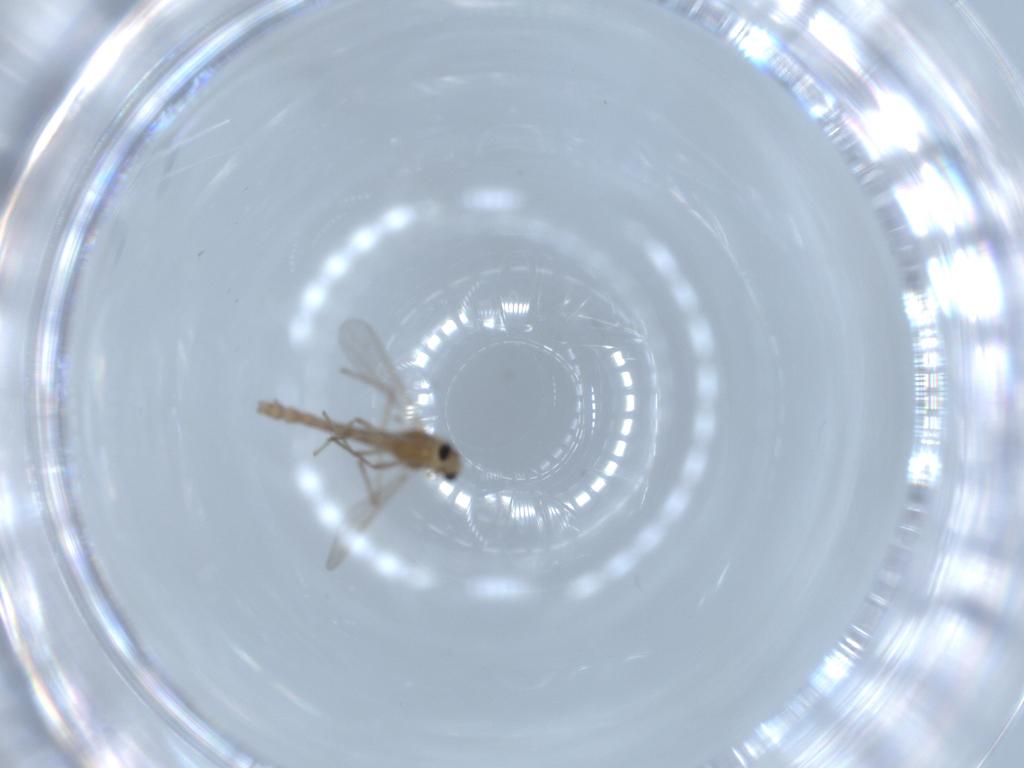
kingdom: Animalia
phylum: Arthropoda
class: Insecta
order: Diptera
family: Chironomidae
